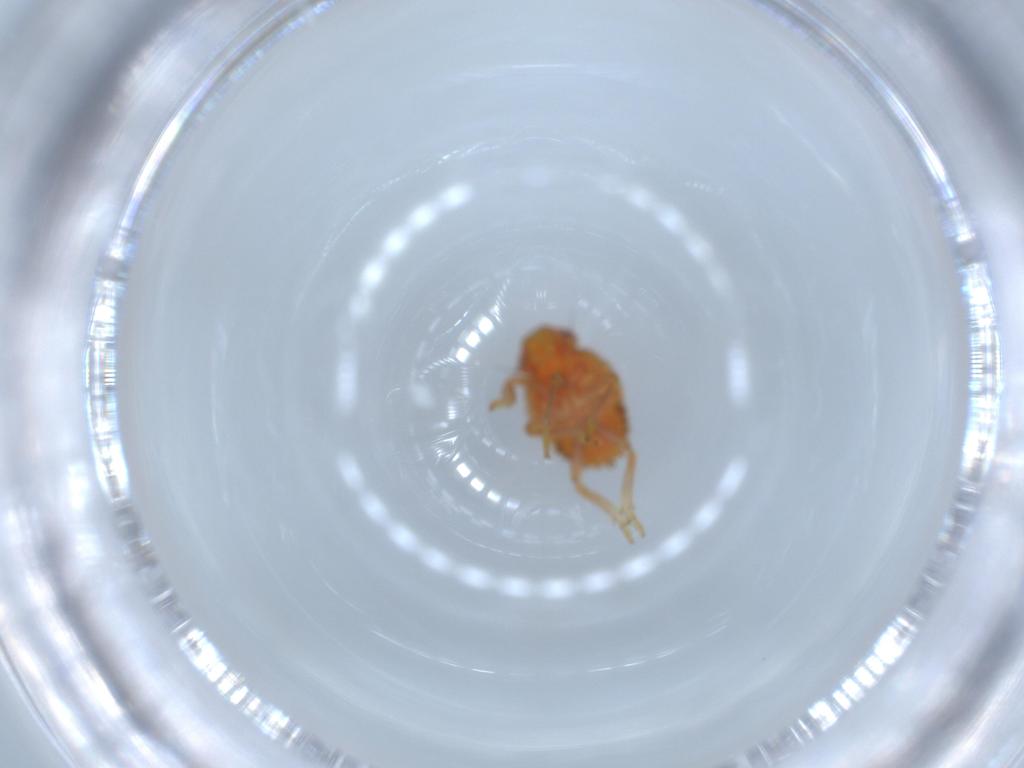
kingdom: Animalia
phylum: Arthropoda
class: Insecta
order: Hemiptera
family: Issidae
